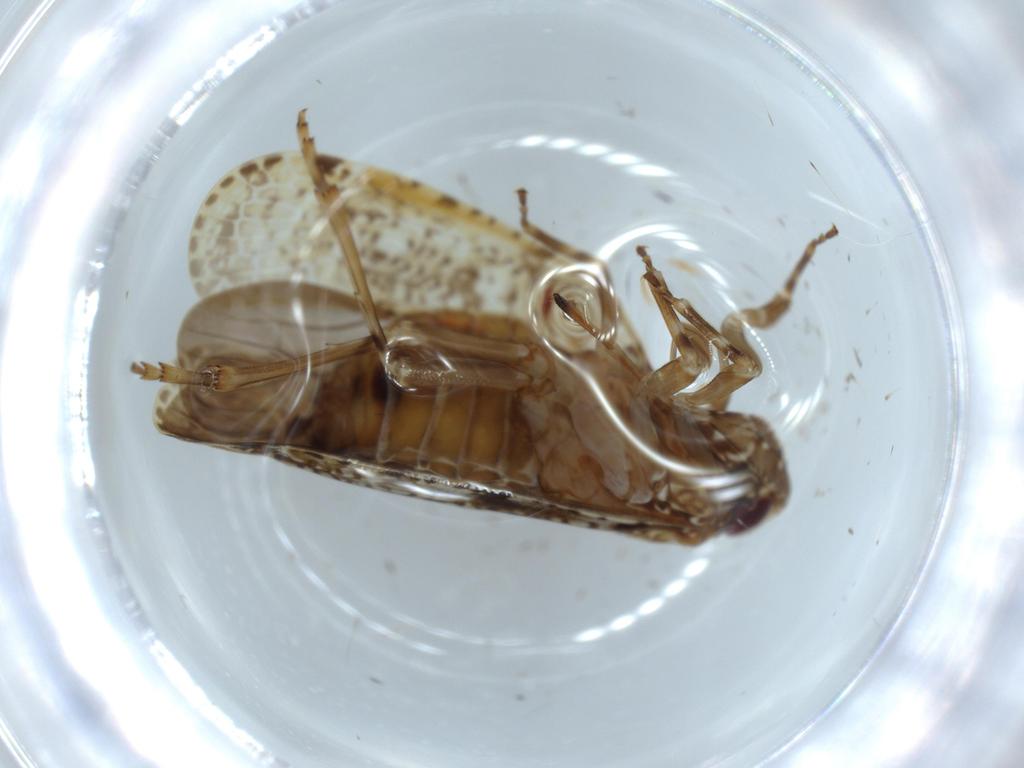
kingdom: Animalia
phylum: Arthropoda
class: Insecta
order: Hemiptera
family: Achilidae
